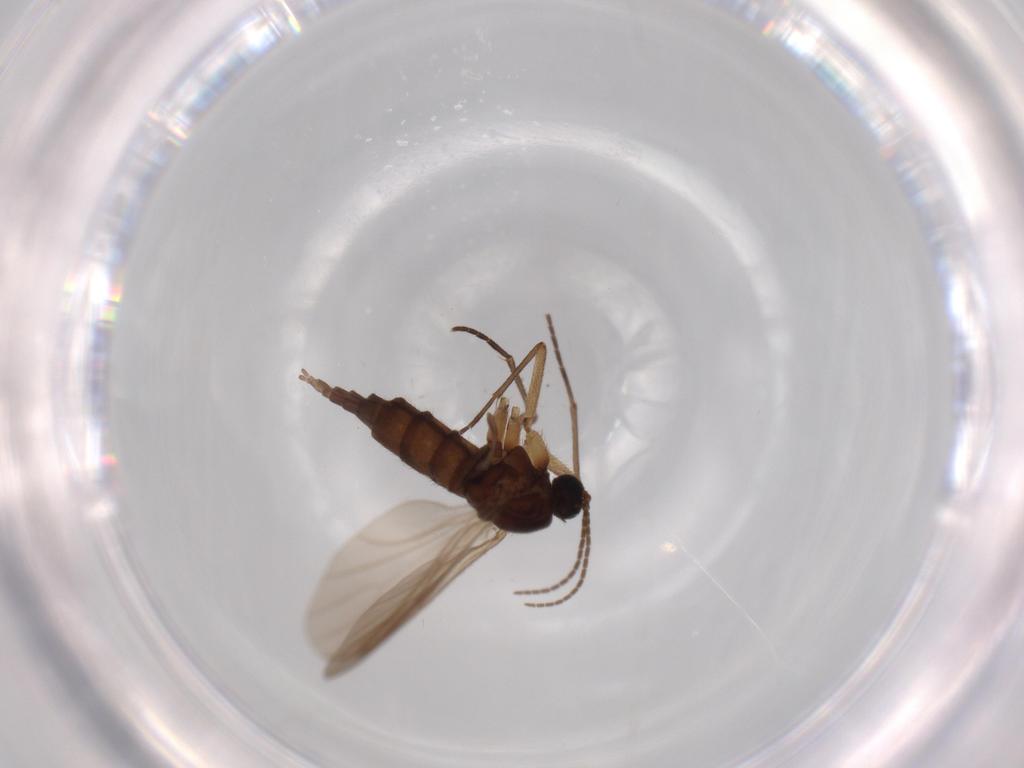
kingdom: Animalia
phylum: Arthropoda
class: Insecta
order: Diptera
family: Sciaridae
